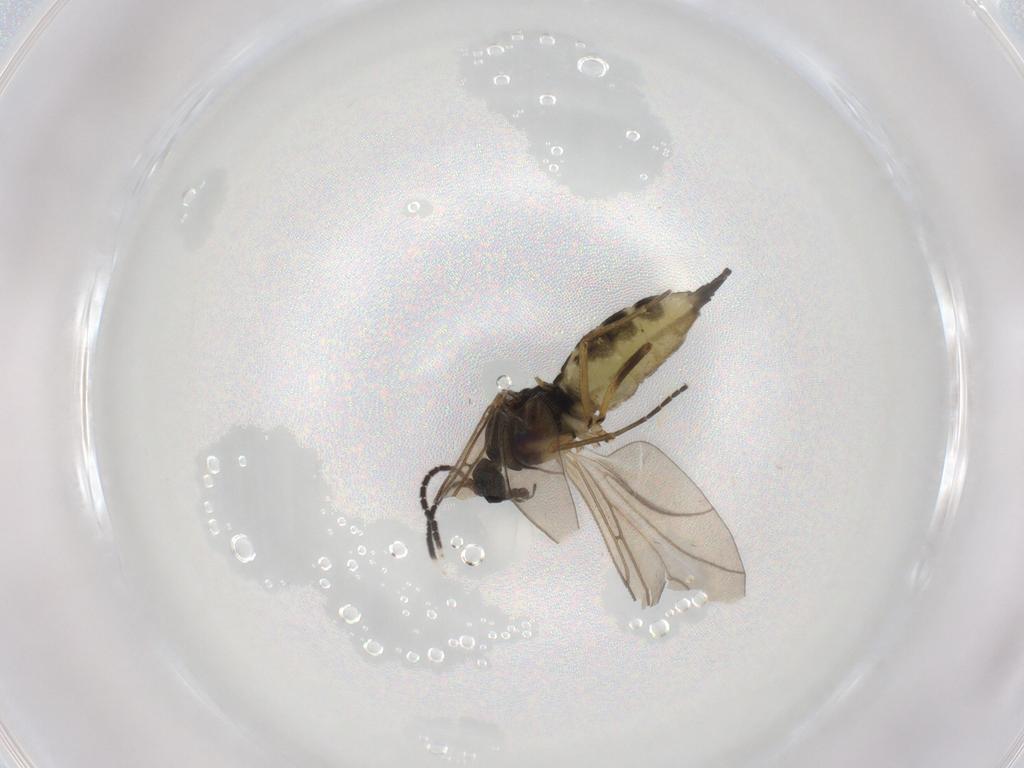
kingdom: Animalia
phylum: Arthropoda
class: Insecta
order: Diptera
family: Sciaridae
